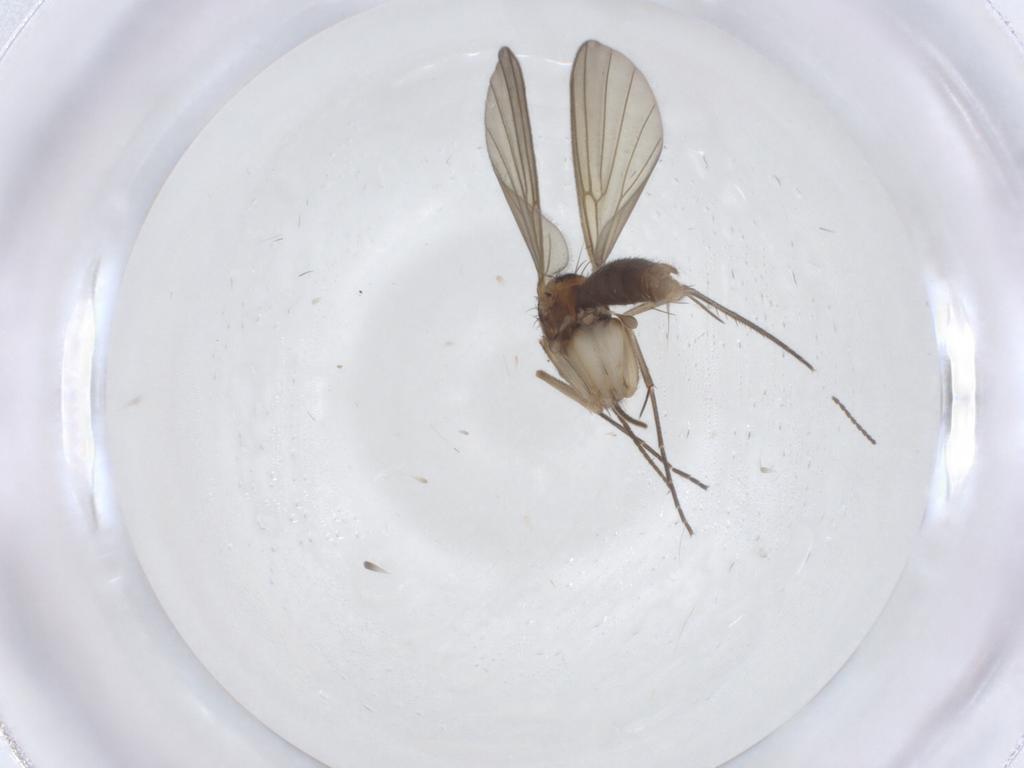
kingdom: Animalia
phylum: Arthropoda
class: Insecta
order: Diptera
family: Mycetophilidae
